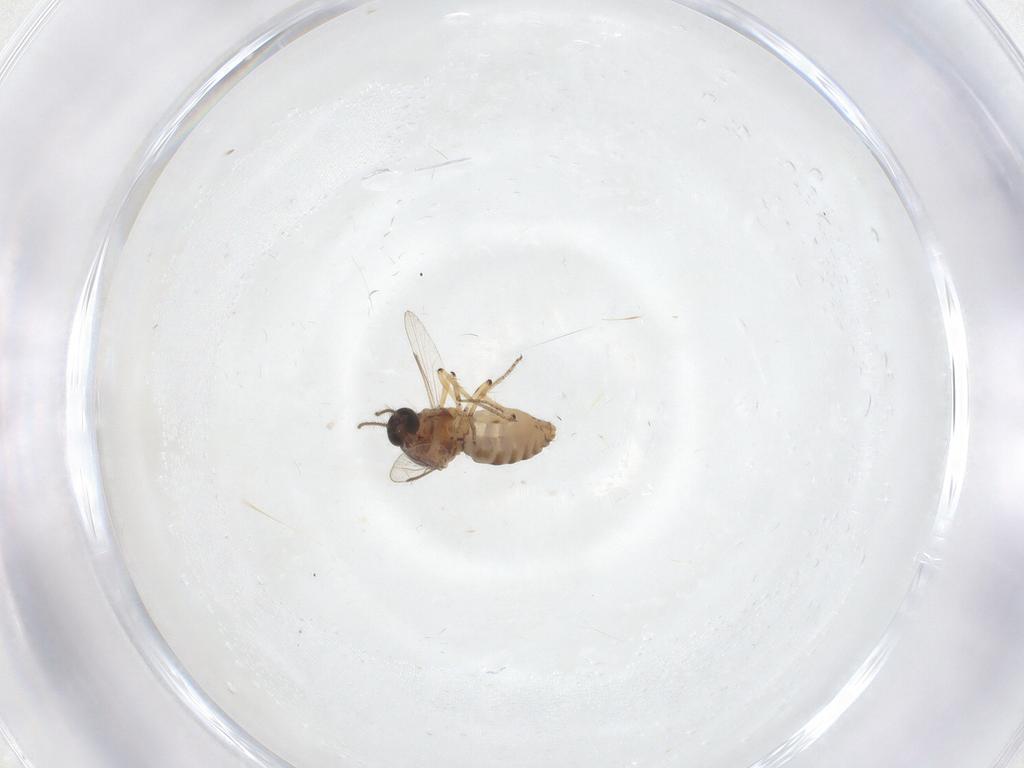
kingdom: Animalia
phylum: Arthropoda
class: Insecta
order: Diptera
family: Ceratopogonidae
